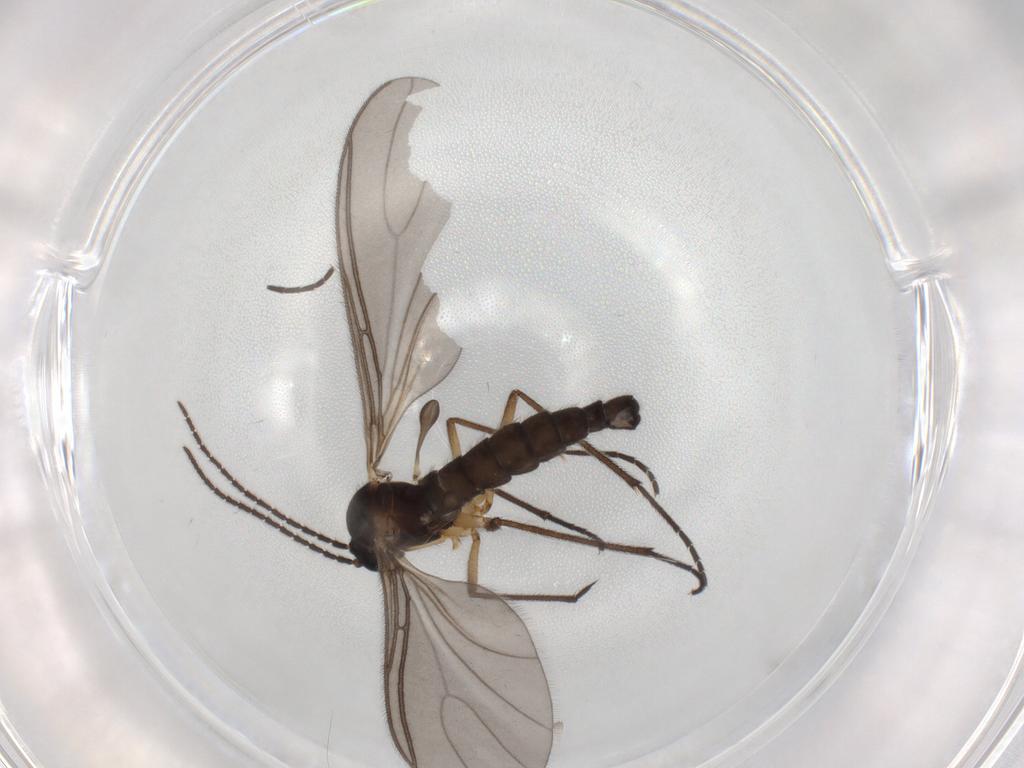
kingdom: Animalia
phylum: Arthropoda
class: Insecta
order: Diptera
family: Sciaridae
